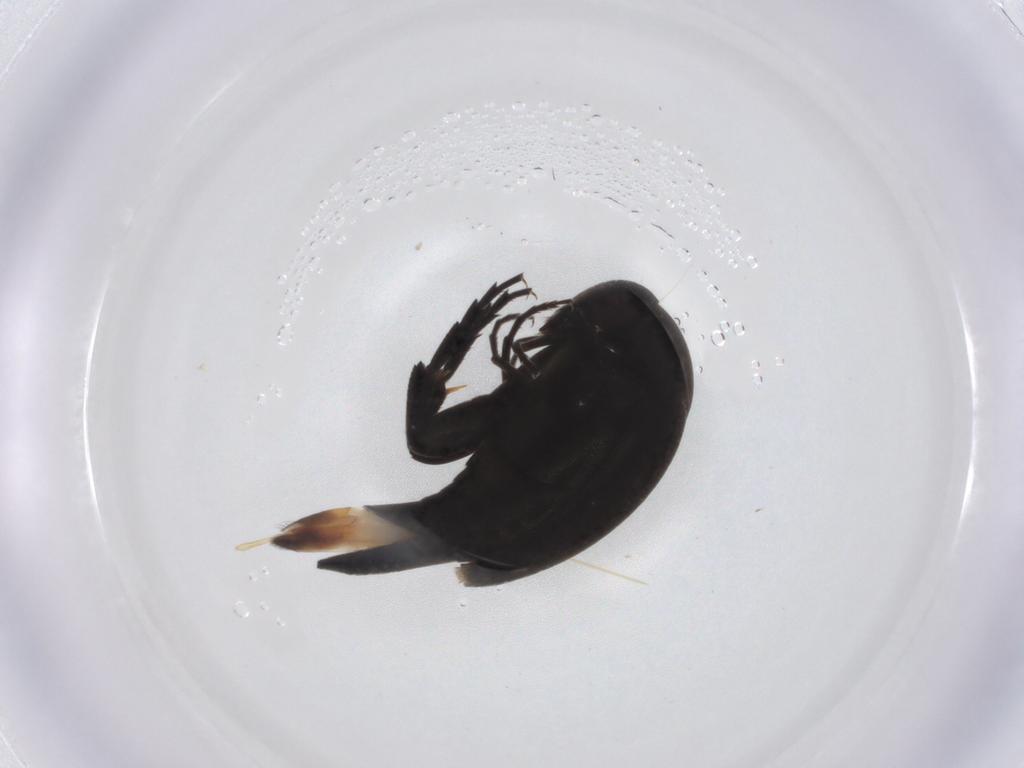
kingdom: Animalia
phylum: Arthropoda
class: Insecta
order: Coleoptera
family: Mordellidae
